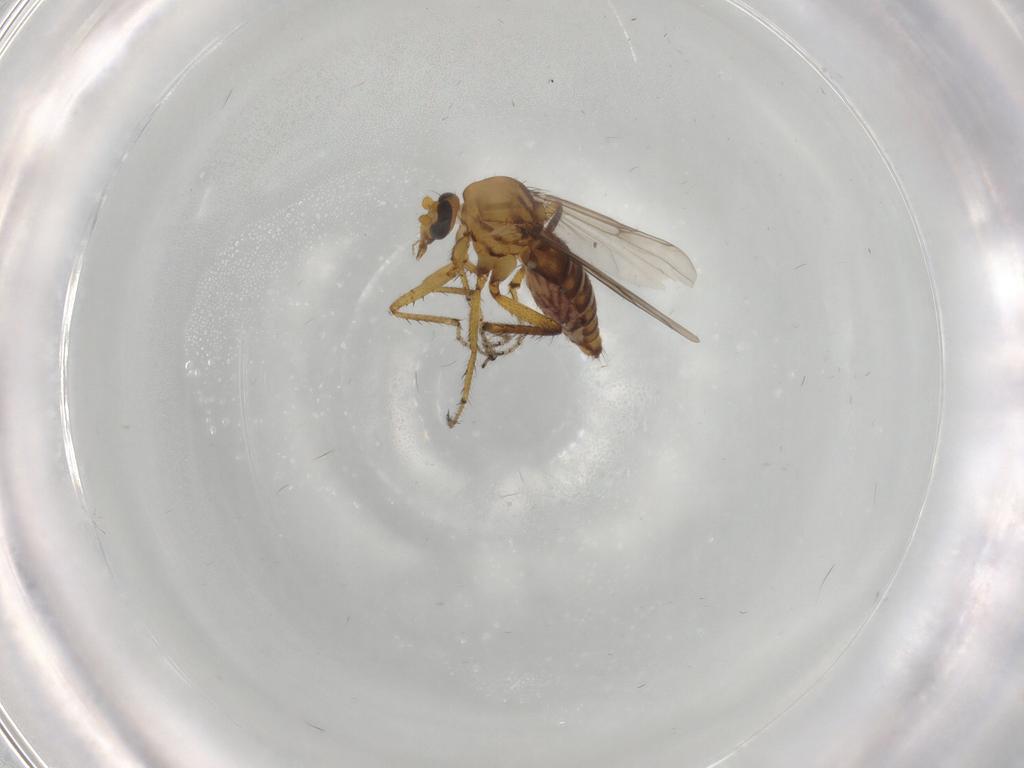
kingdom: Animalia
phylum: Arthropoda
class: Insecta
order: Diptera
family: Ceratopogonidae
